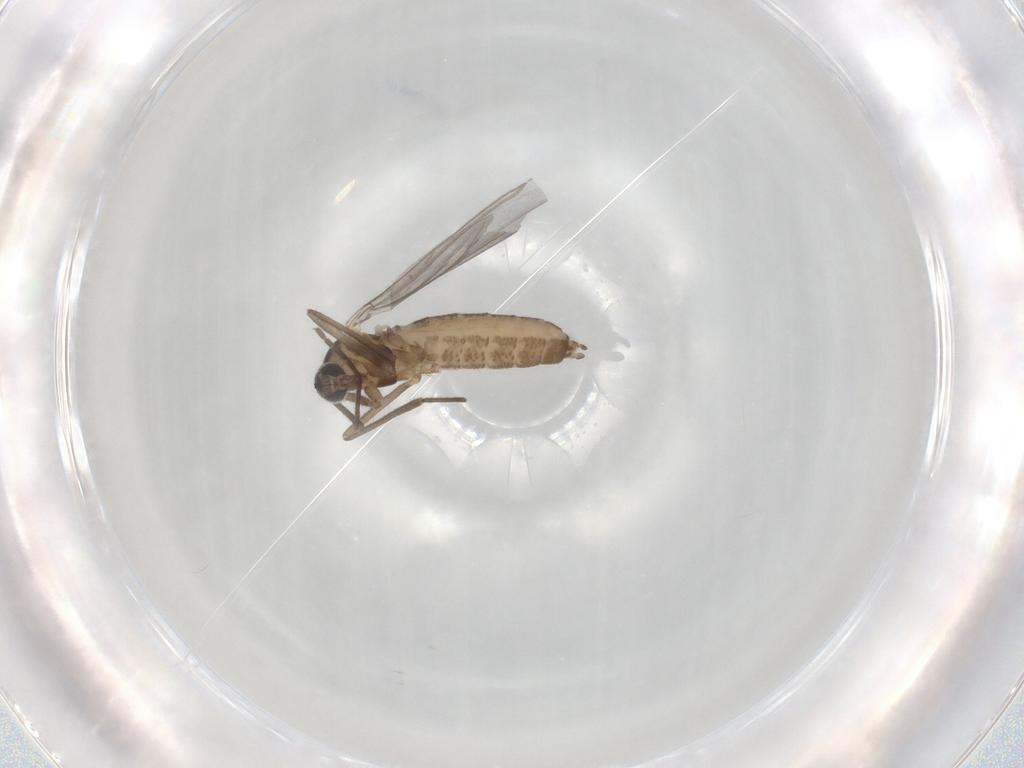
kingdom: Animalia
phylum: Arthropoda
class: Insecta
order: Diptera
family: Cecidomyiidae
